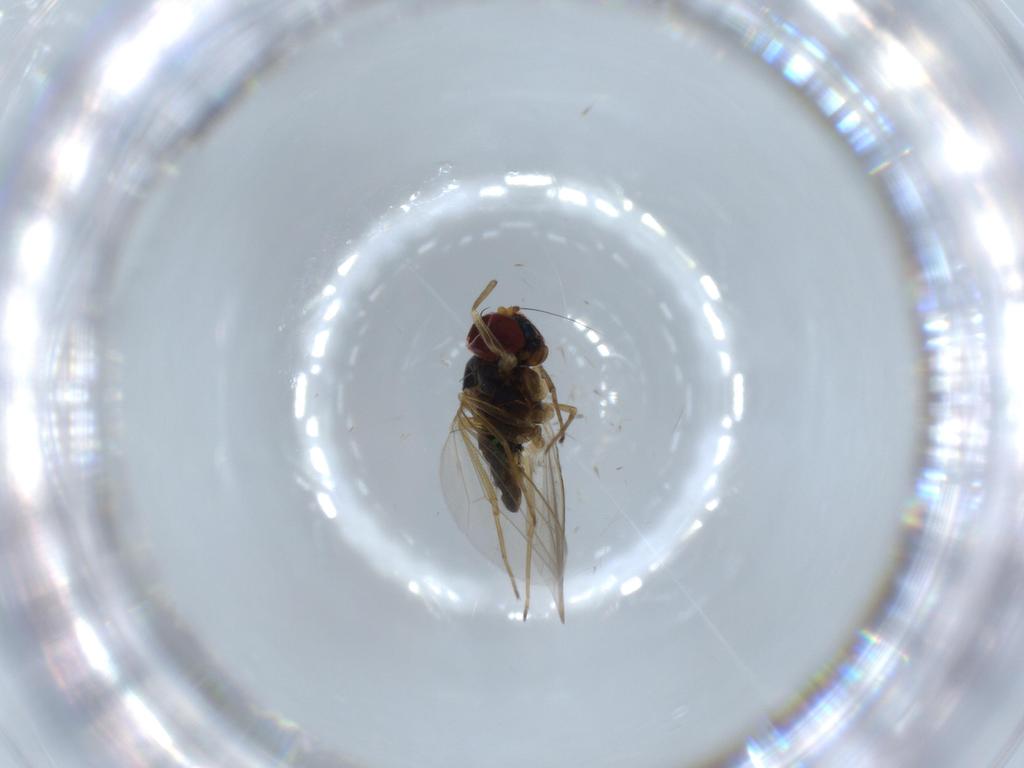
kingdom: Animalia
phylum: Arthropoda
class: Insecta
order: Diptera
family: Dolichopodidae
